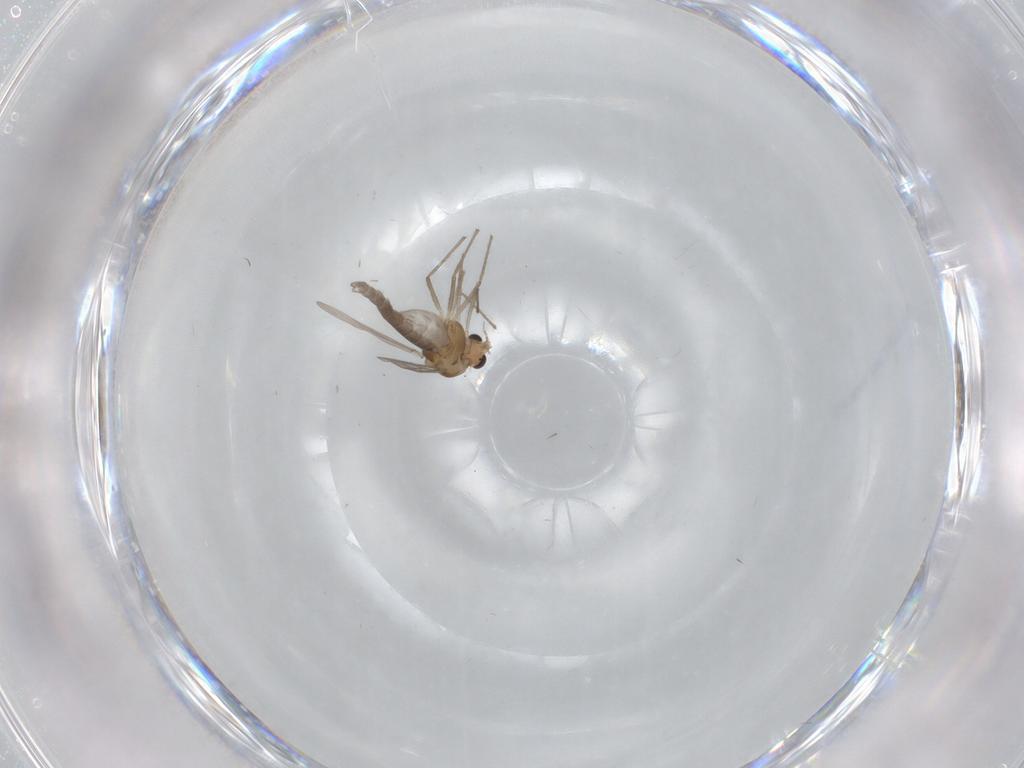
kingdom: Animalia
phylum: Arthropoda
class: Insecta
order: Diptera
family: Chironomidae
